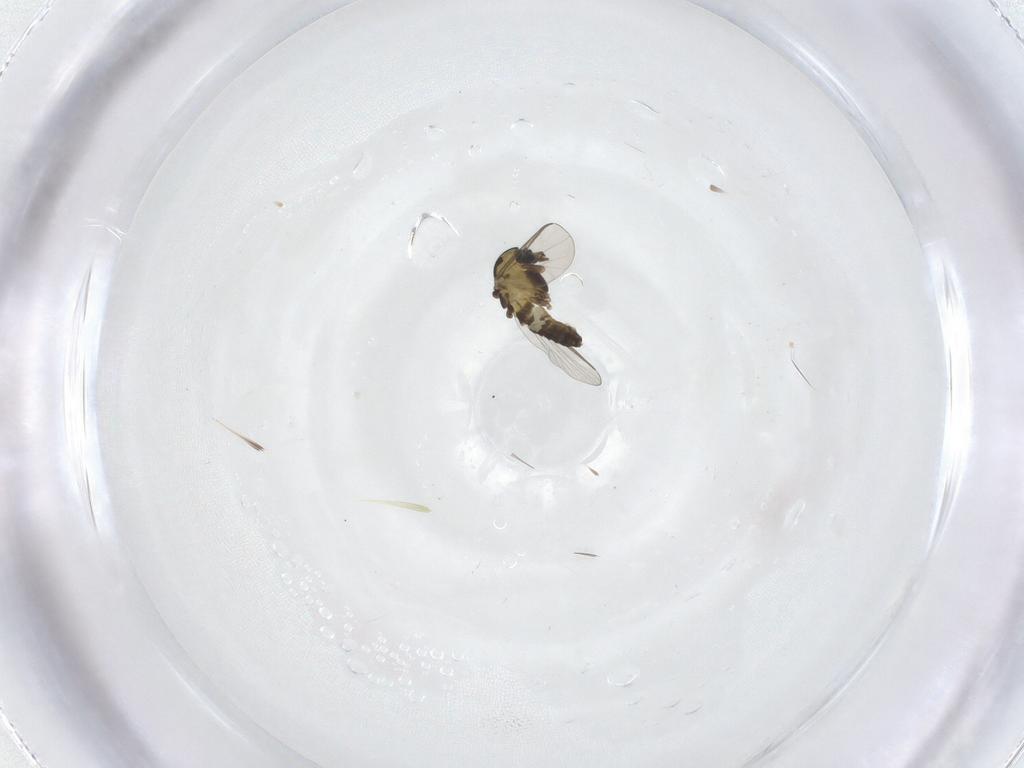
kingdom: Animalia
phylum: Arthropoda
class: Insecta
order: Diptera
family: Chironomidae
